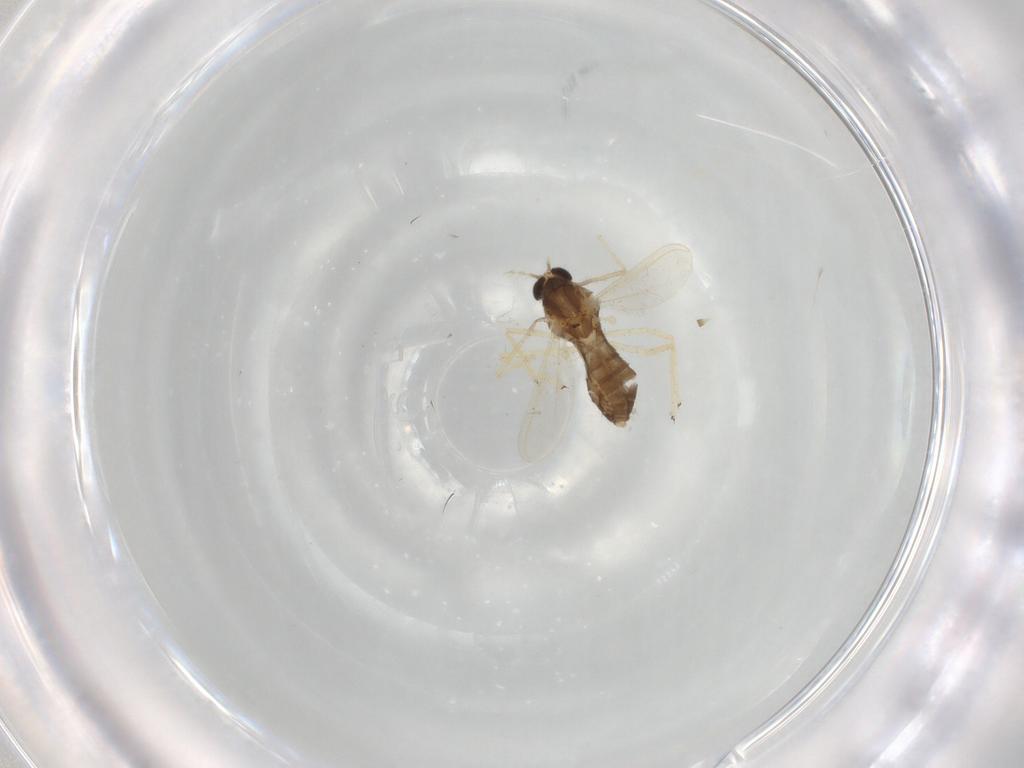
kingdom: Animalia
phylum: Arthropoda
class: Insecta
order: Diptera
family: Chironomidae
